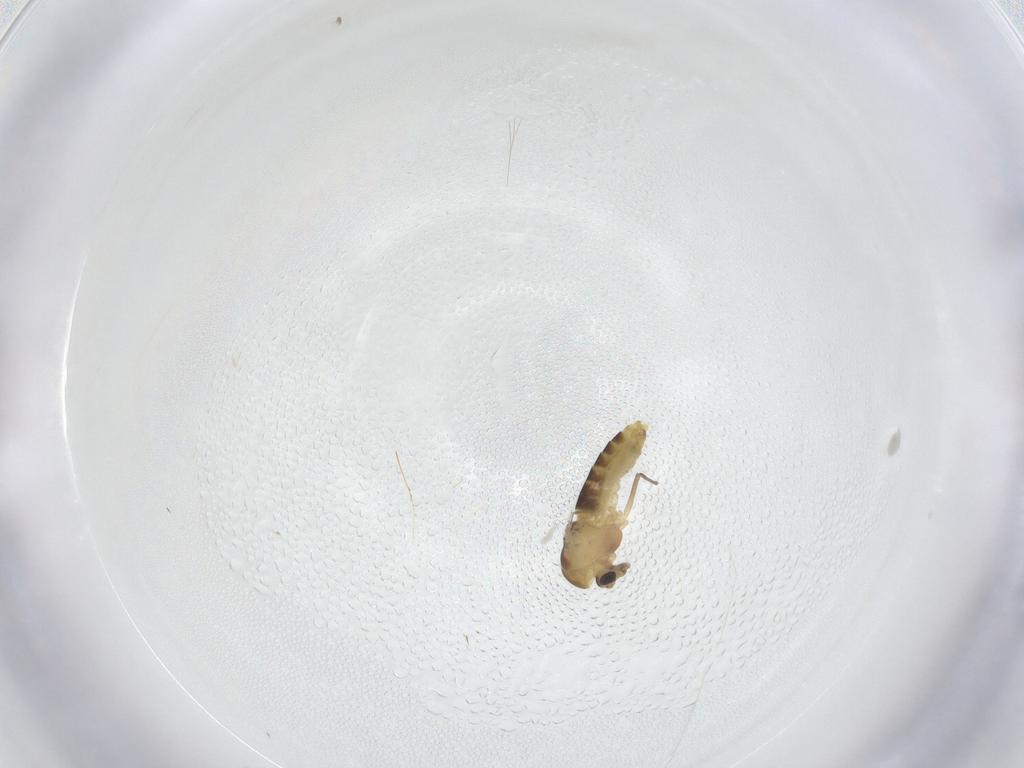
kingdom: Animalia
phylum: Arthropoda
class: Insecta
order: Diptera
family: Chironomidae
